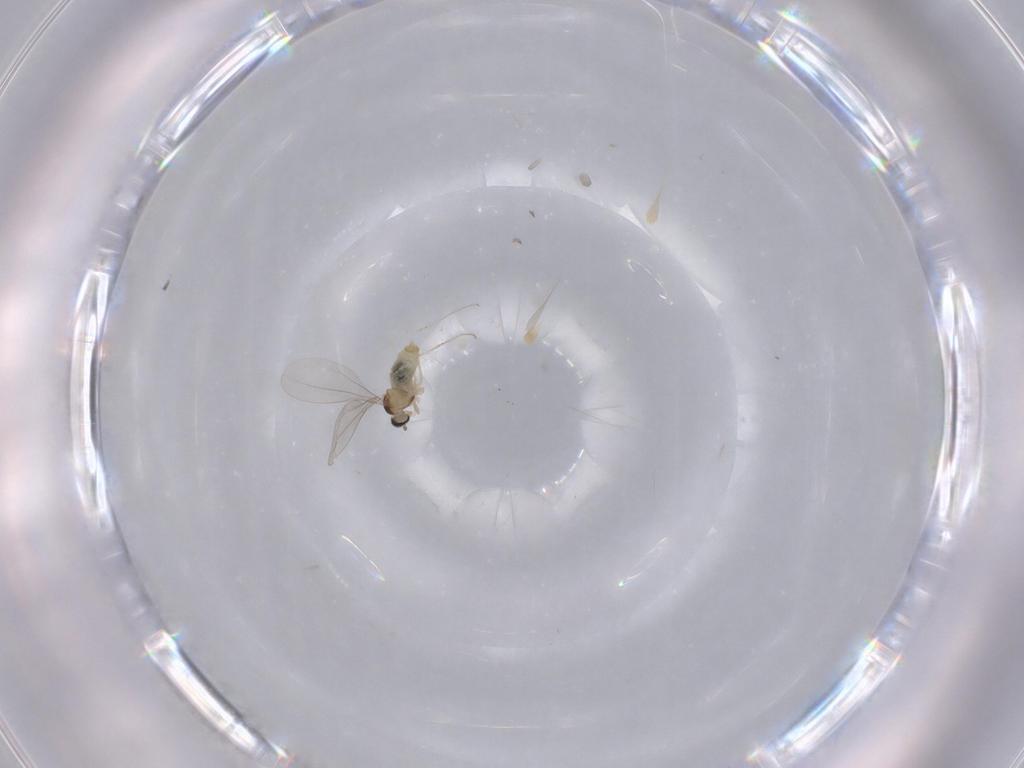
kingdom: Animalia
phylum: Arthropoda
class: Insecta
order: Diptera
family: Cecidomyiidae
